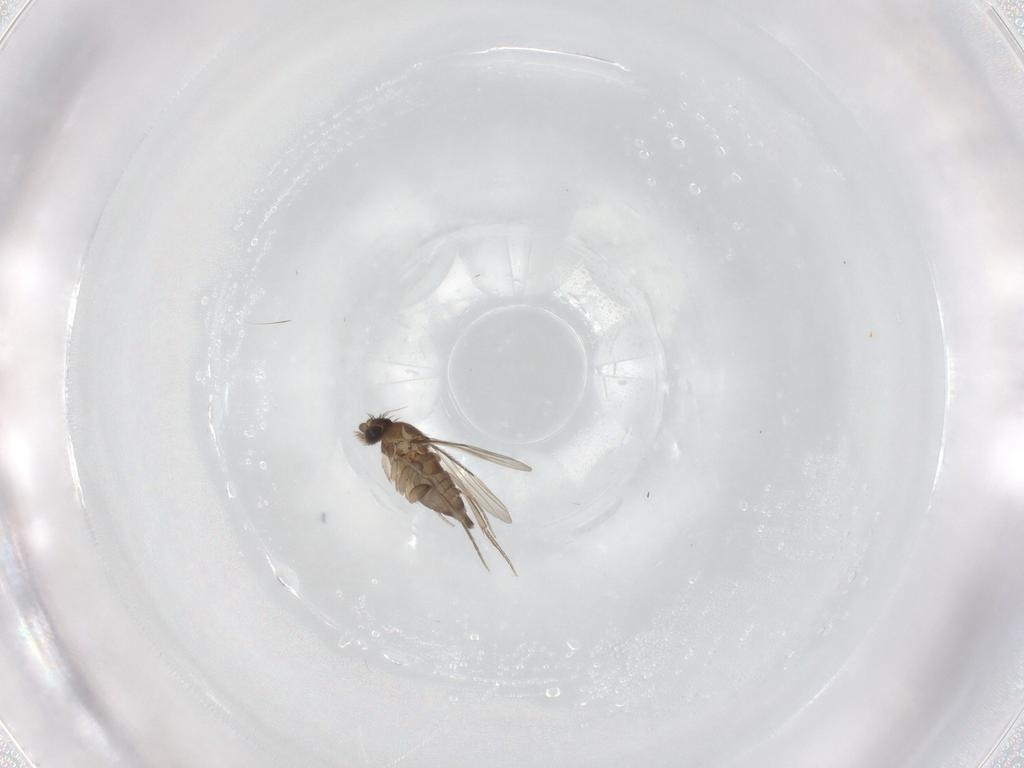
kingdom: Animalia
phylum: Arthropoda
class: Insecta
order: Diptera
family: Phoridae
